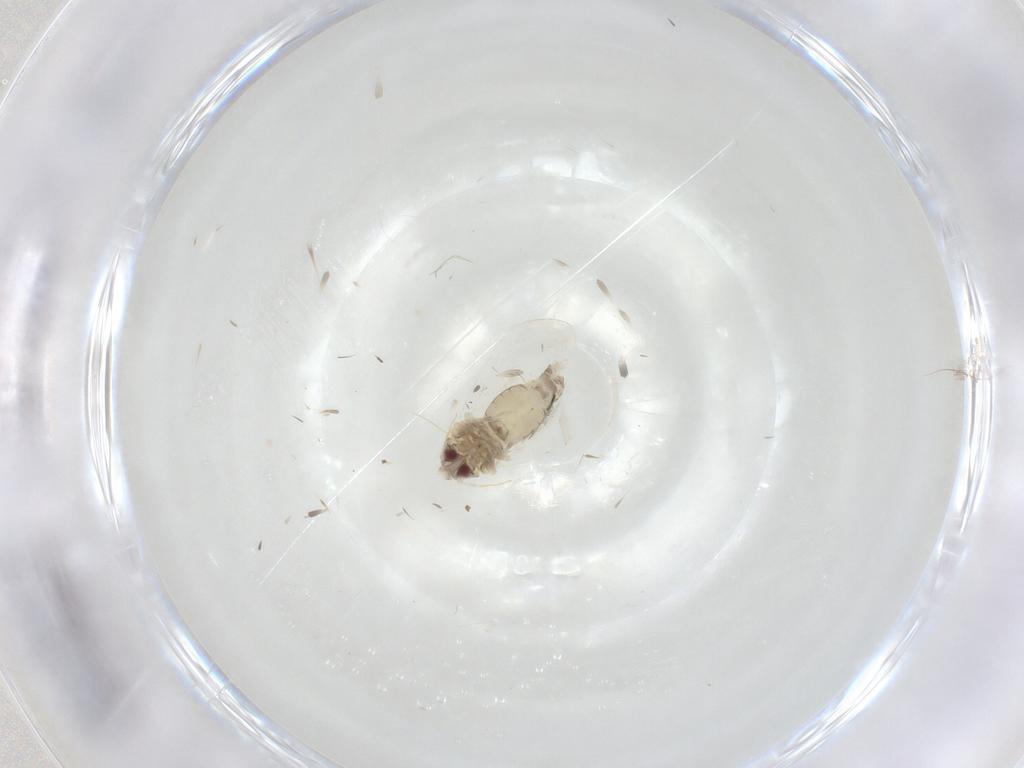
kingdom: Animalia
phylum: Arthropoda
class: Insecta
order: Hemiptera
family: Aleyrodidae
